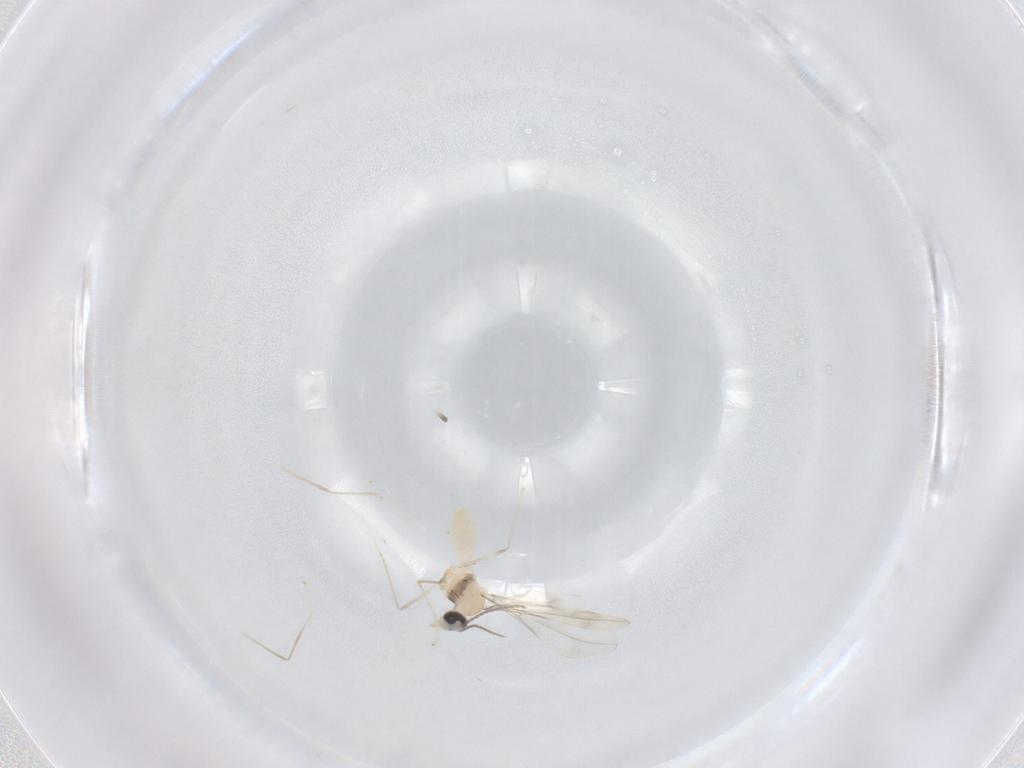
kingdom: Animalia
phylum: Arthropoda
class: Insecta
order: Diptera
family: Cecidomyiidae
